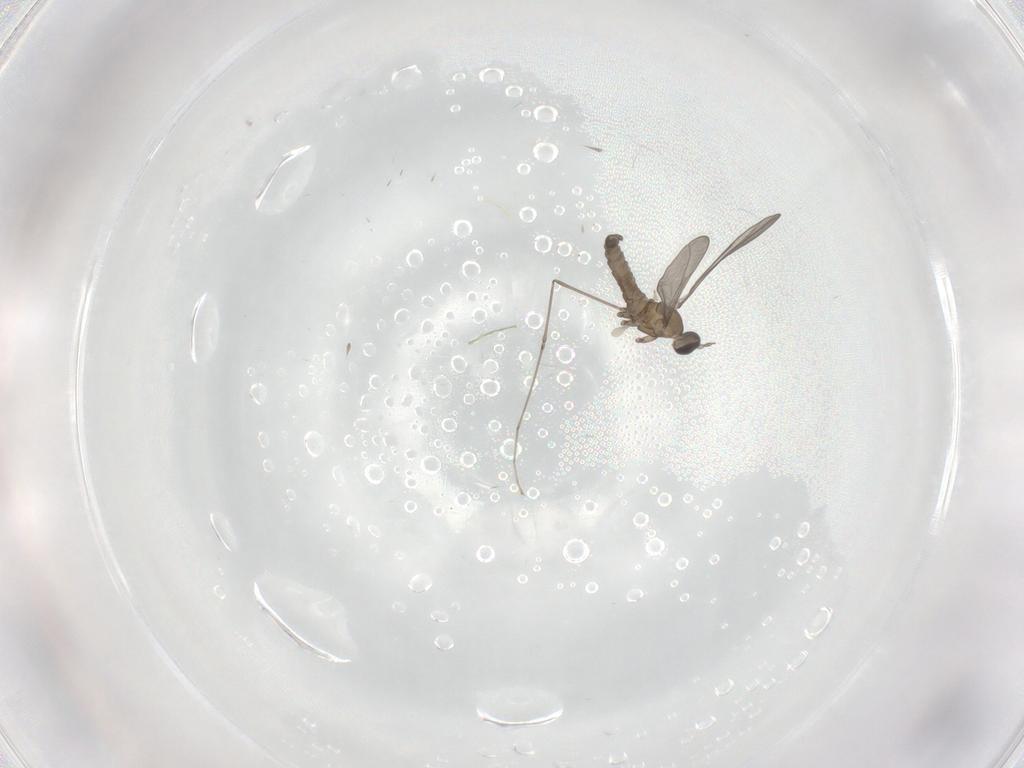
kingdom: Animalia
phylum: Arthropoda
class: Insecta
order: Diptera
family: Cecidomyiidae
